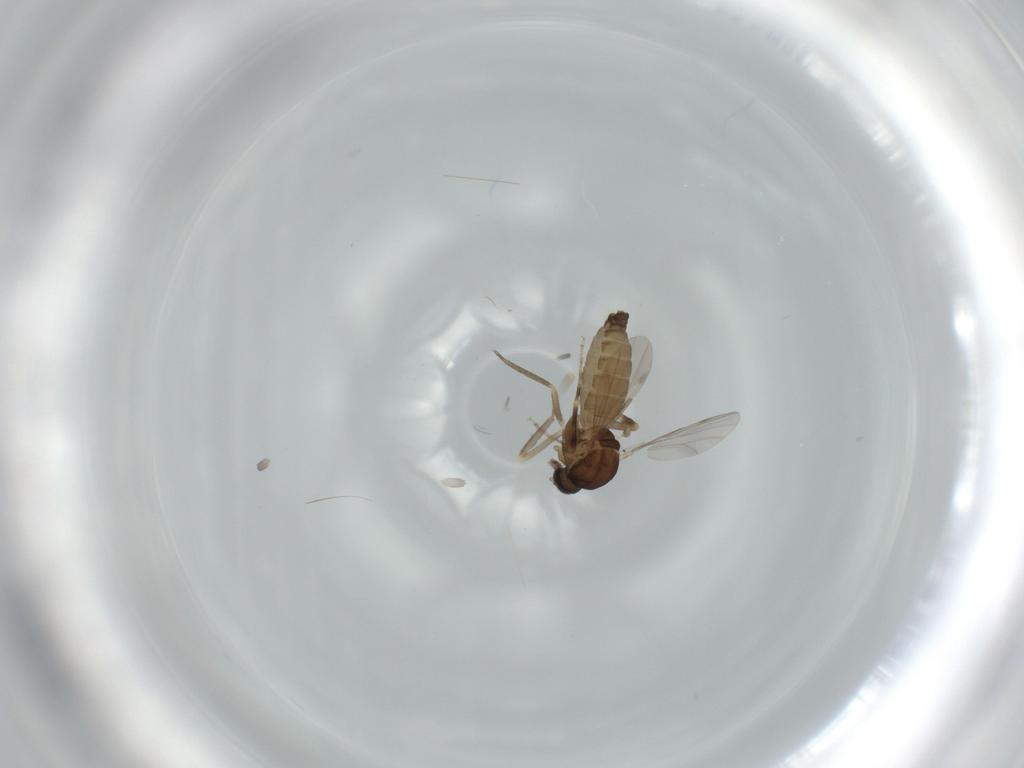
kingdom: Animalia
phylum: Arthropoda
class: Insecta
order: Diptera
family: Ceratopogonidae
